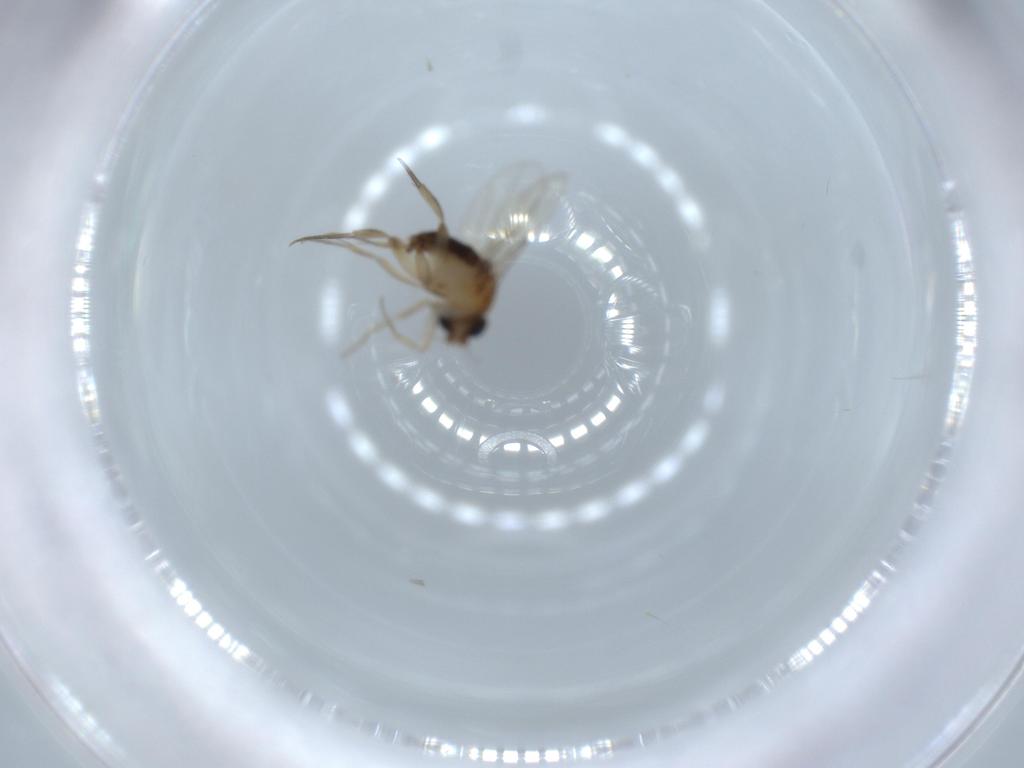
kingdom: Animalia
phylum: Arthropoda
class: Insecta
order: Diptera
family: Phoridae
